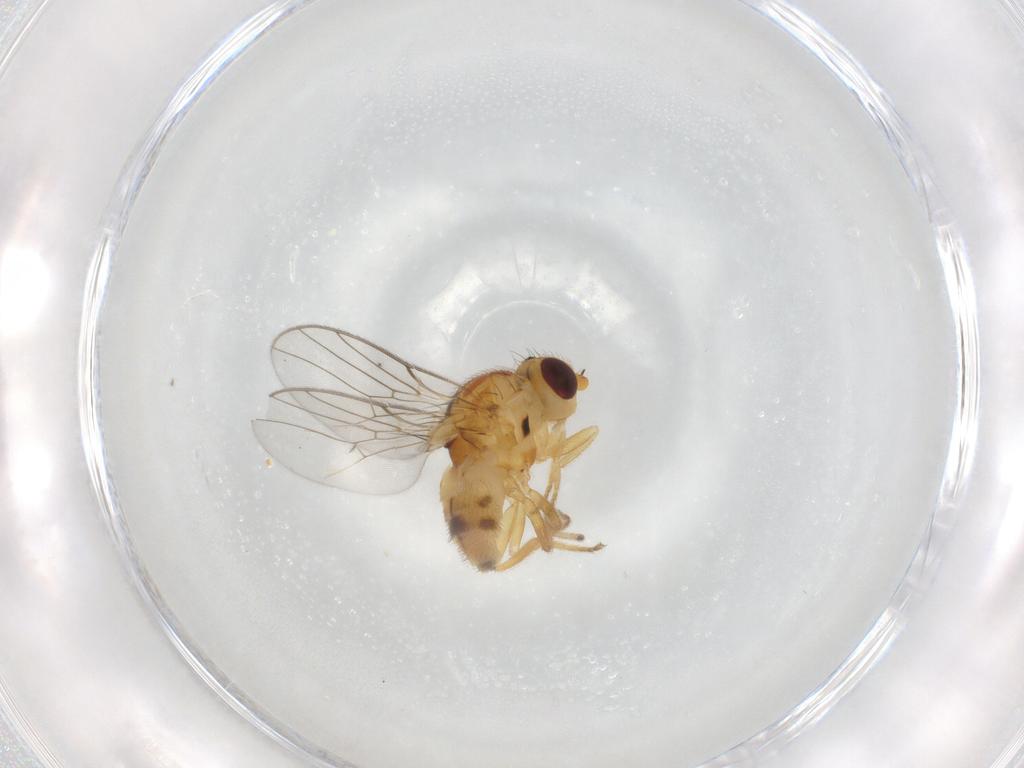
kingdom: Animalia
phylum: Arthropoda
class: Insecta
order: Diptera
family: Chloropidae
